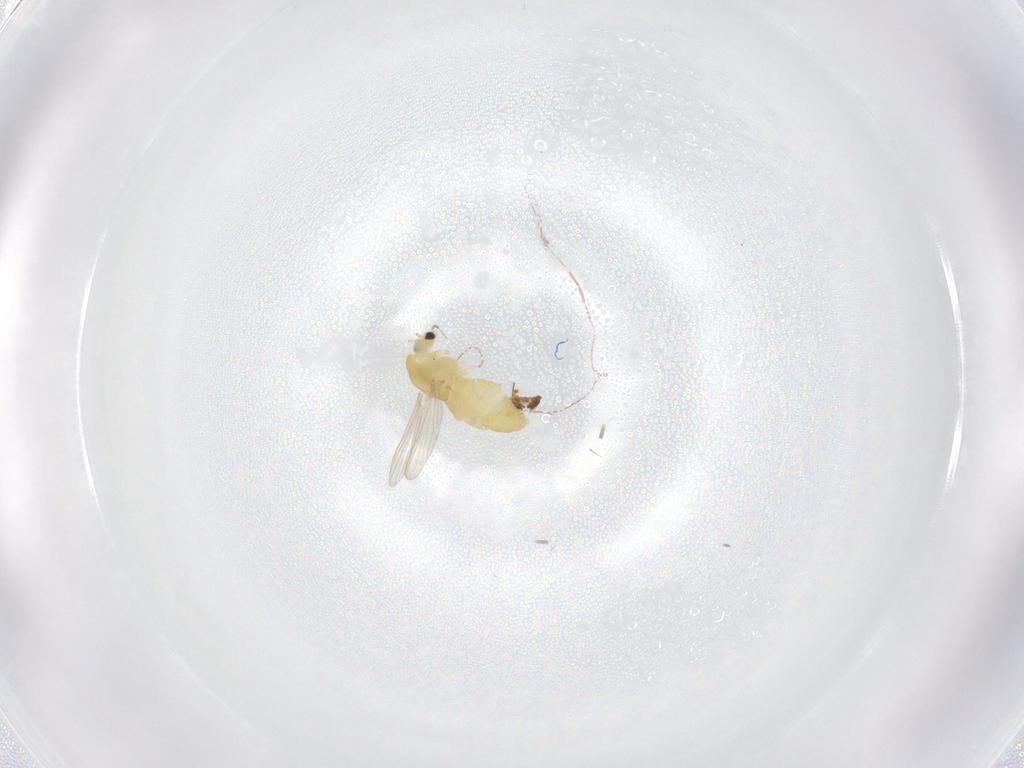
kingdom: Animalia
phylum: Arthropoda
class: Insecta
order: Diptera
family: Chironomidae
